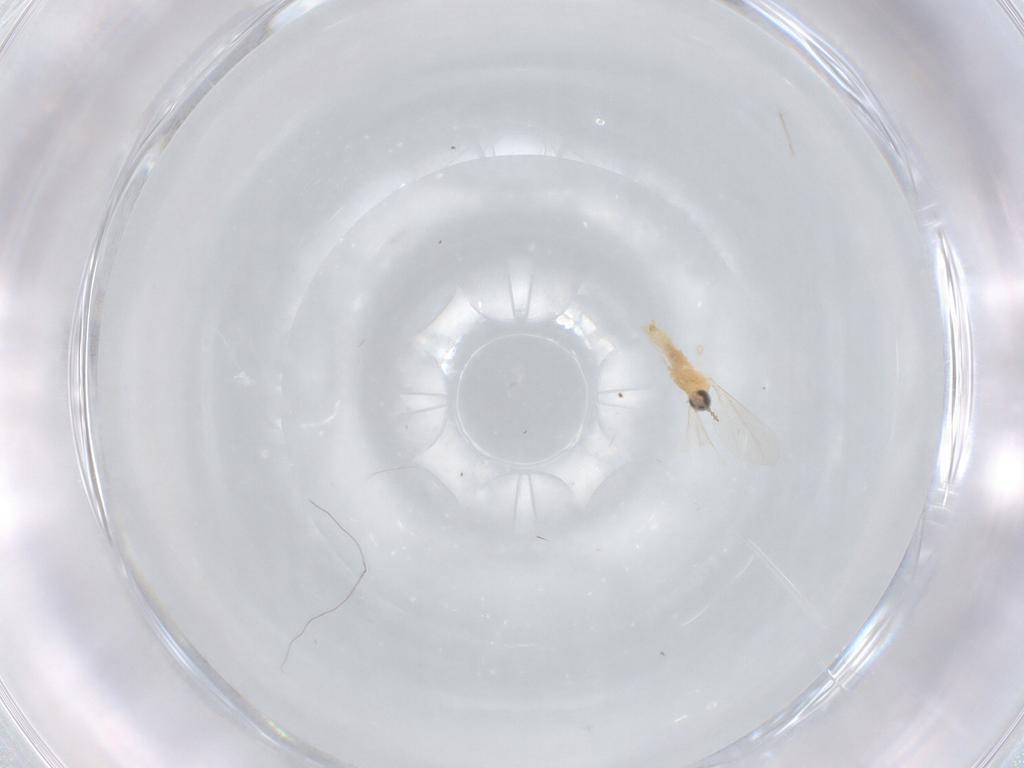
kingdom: Animalia
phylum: Arthropoda
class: Insecta
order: Diptera
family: Cecidomyiidae
